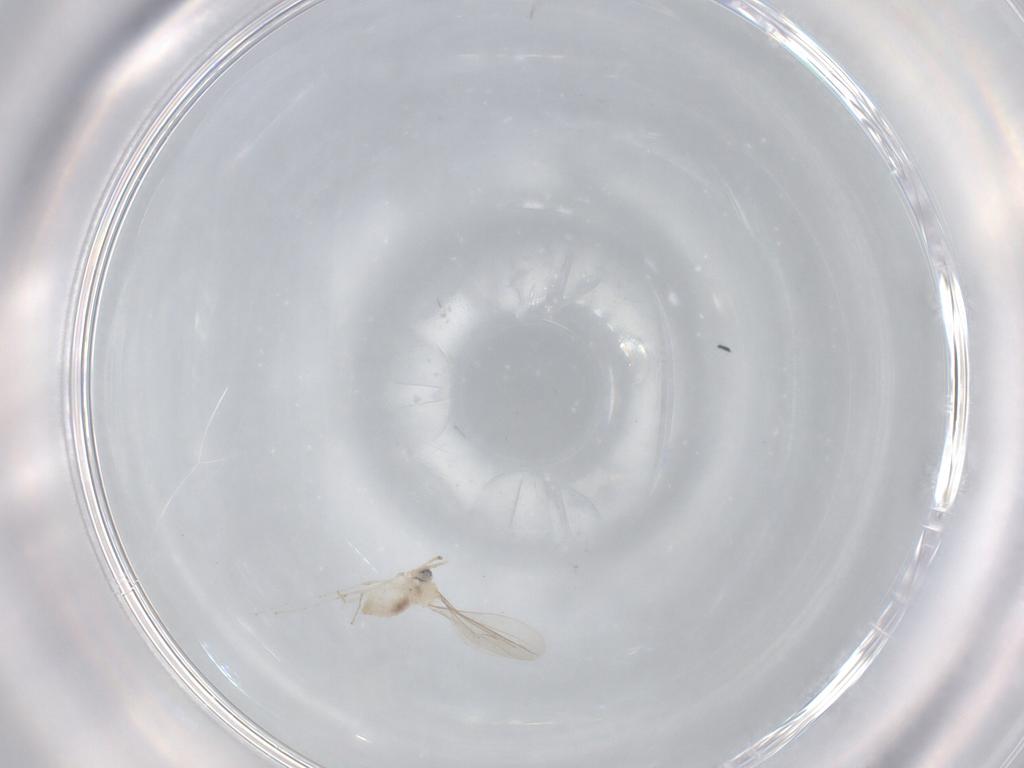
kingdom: Animalia
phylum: Arthropoda
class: Insecta
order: Diptera
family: Cecidomyiidae
